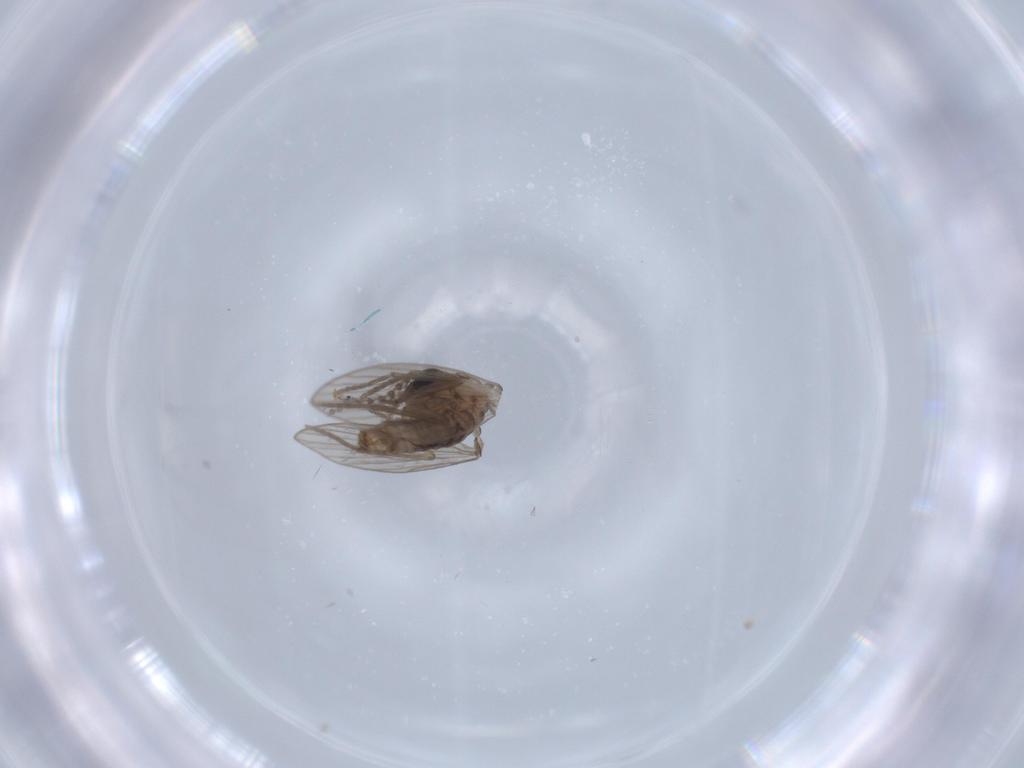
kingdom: Animalia
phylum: Arthropoda
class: Insecta
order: Diptera
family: Psychodidae
